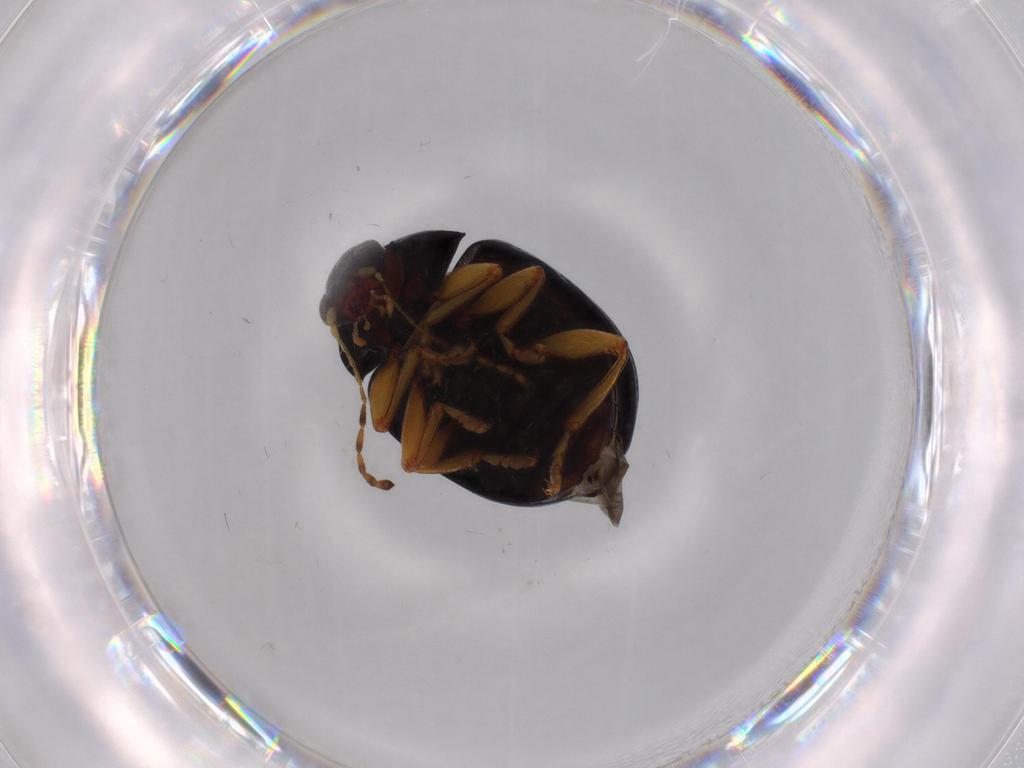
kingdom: Animalia
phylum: Arthropoda
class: Insecta
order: Coleoptera
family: Chrysomelidae
